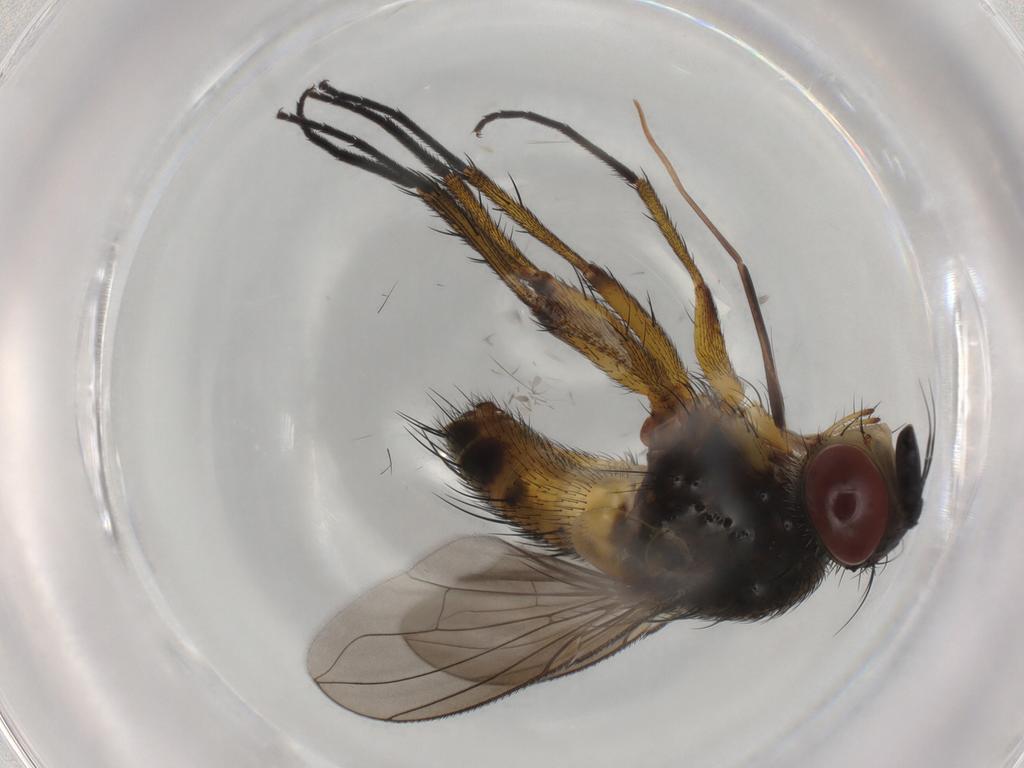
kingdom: Animalia
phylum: Arthropoda
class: Insecta
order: Diptera
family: Tachinidae
